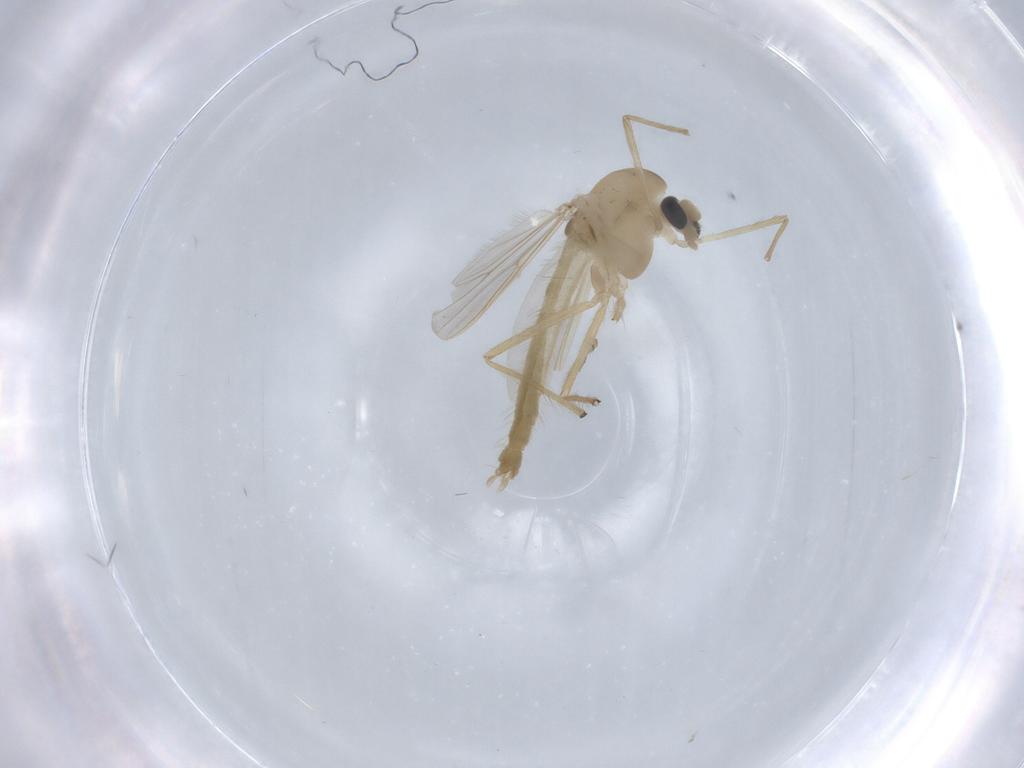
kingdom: Animalia
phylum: Arthropoda
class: Insecta
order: Diptera
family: Chironomidae
